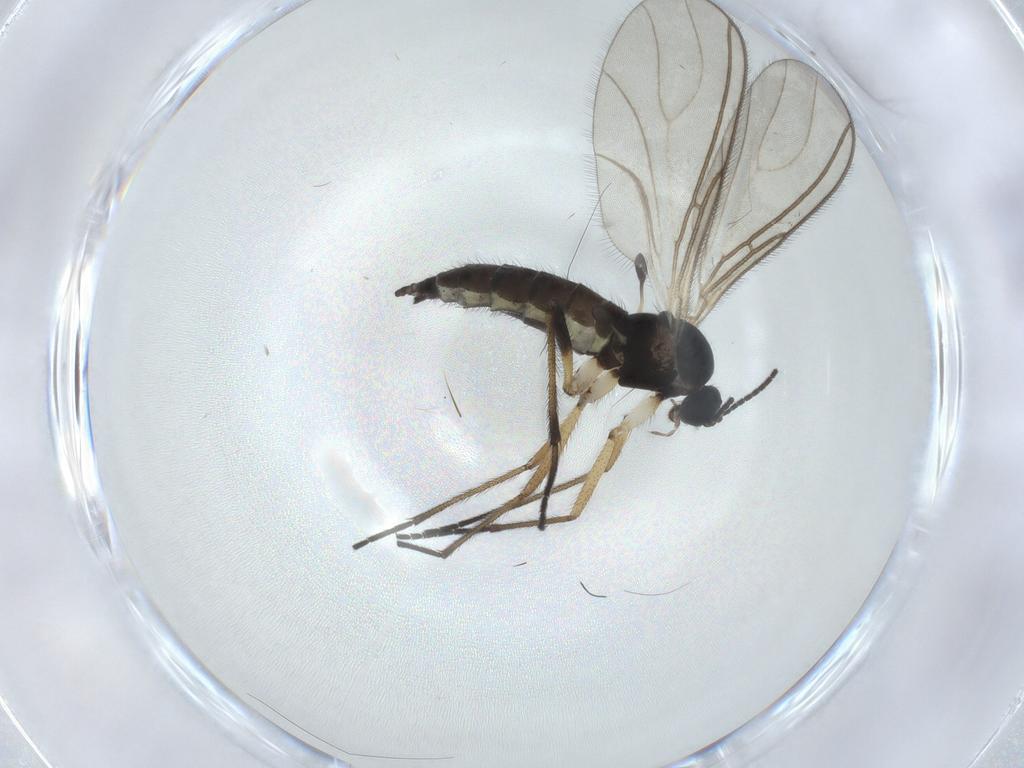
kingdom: Animalia
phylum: Arthropoda
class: Insecta
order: Diptera
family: Sciaridae
